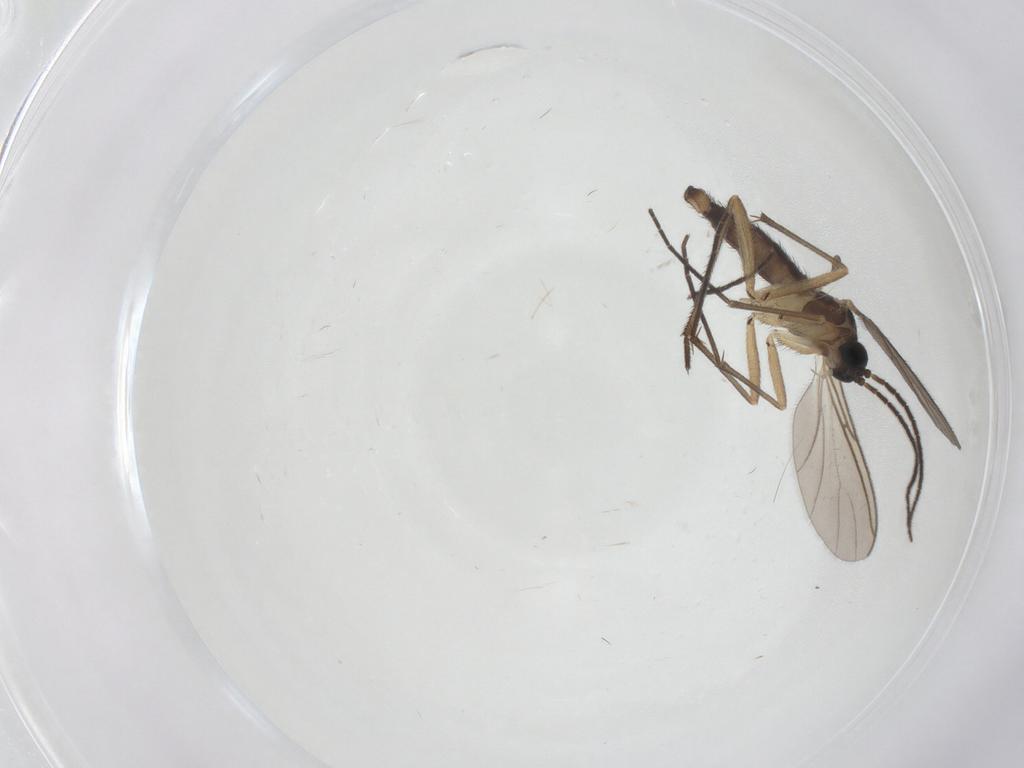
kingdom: Animalia
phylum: Arthropoda
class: Insecta
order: Diptera
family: Sciaridae
